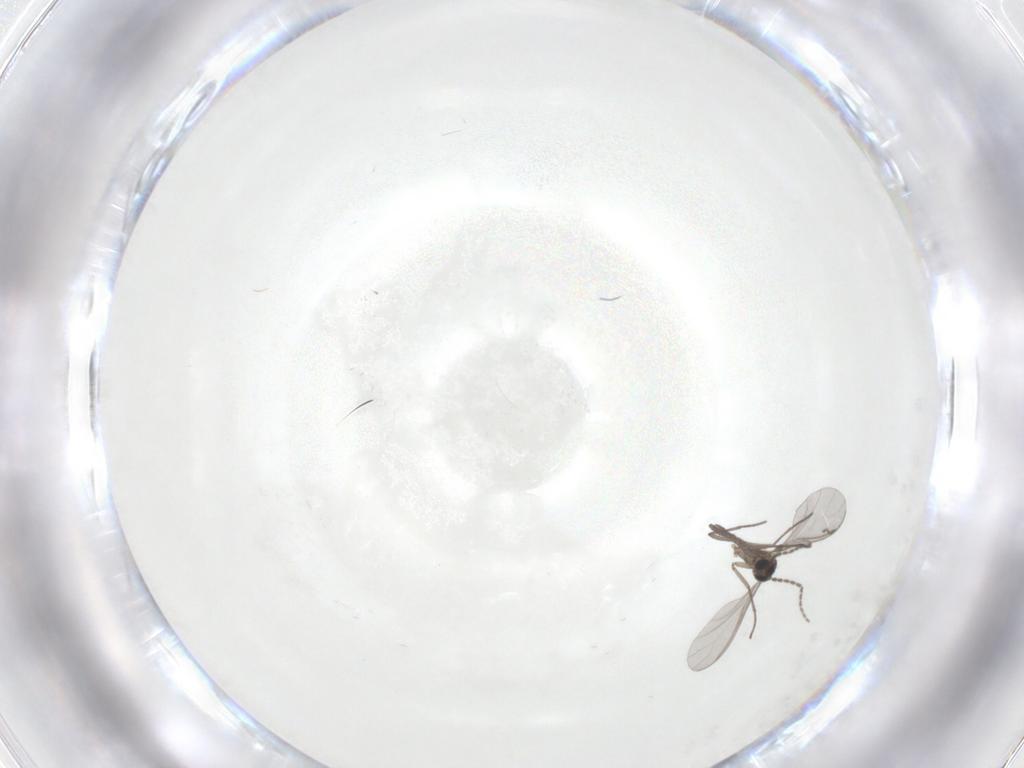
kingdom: Animalia
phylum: Arthropoda
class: Insecta
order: Diptera
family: Sciaridae
